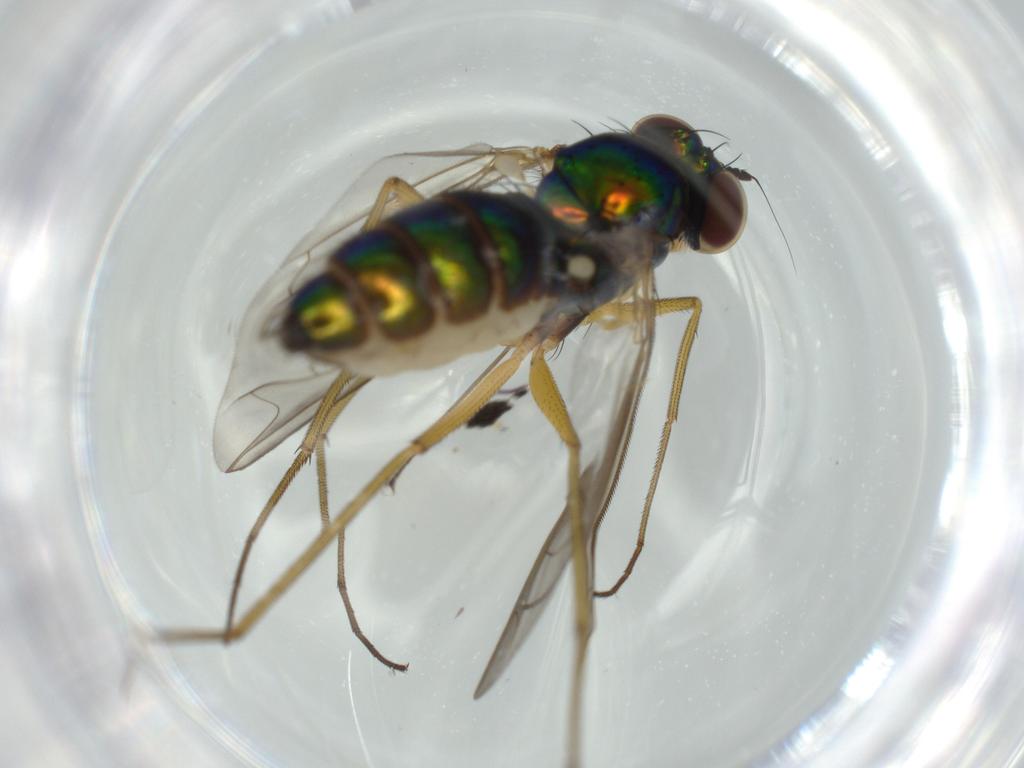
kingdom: Animalia
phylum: Arthropoda
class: Insecta
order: Diptera
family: Dolichopodidae
